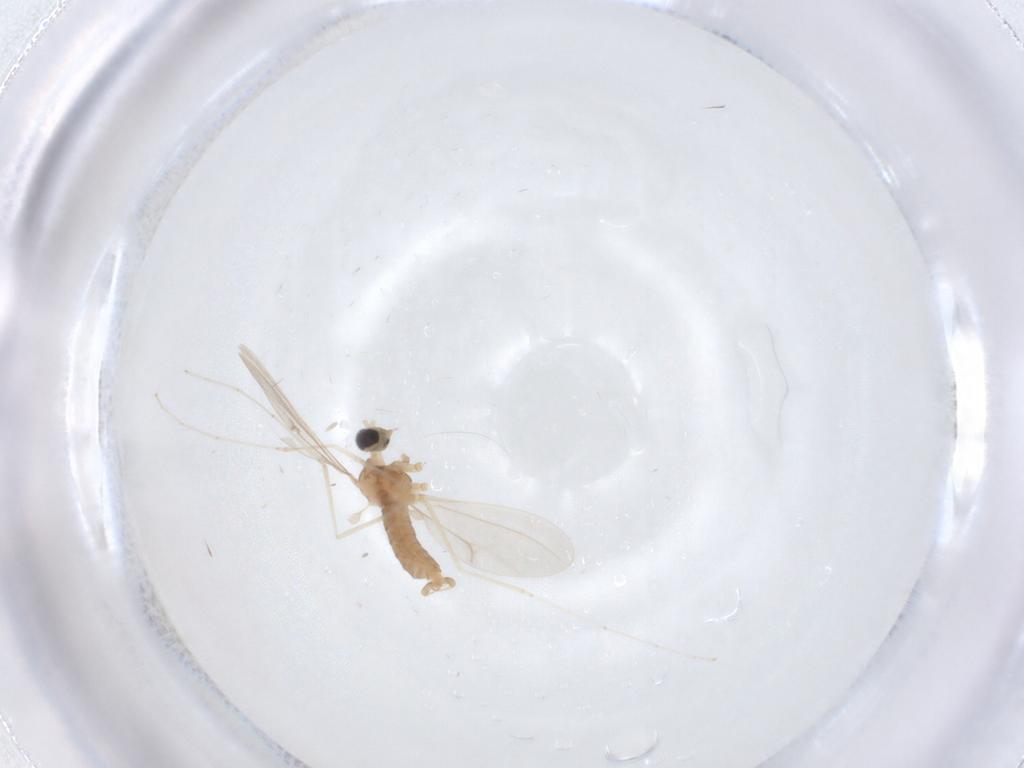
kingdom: Animalia
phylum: Arthropoda
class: Insecta
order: Diptera
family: Cecidomyiidae
